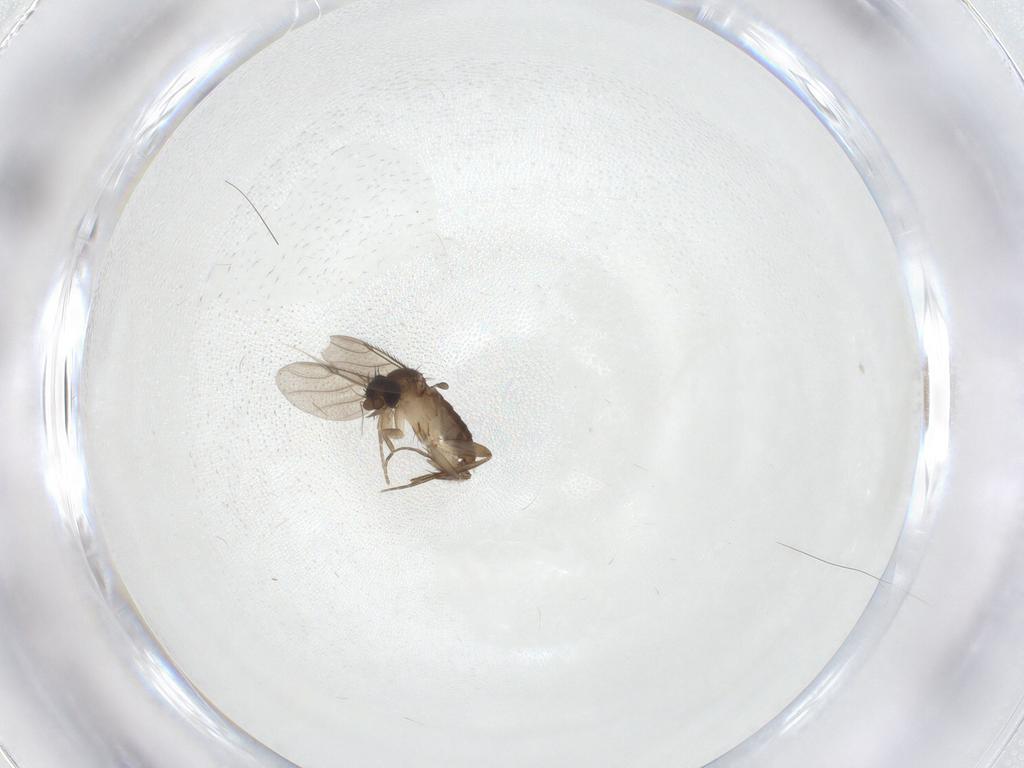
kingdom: Animalia
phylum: Arthropoda
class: Insecta
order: Diptera
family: Phoridae
